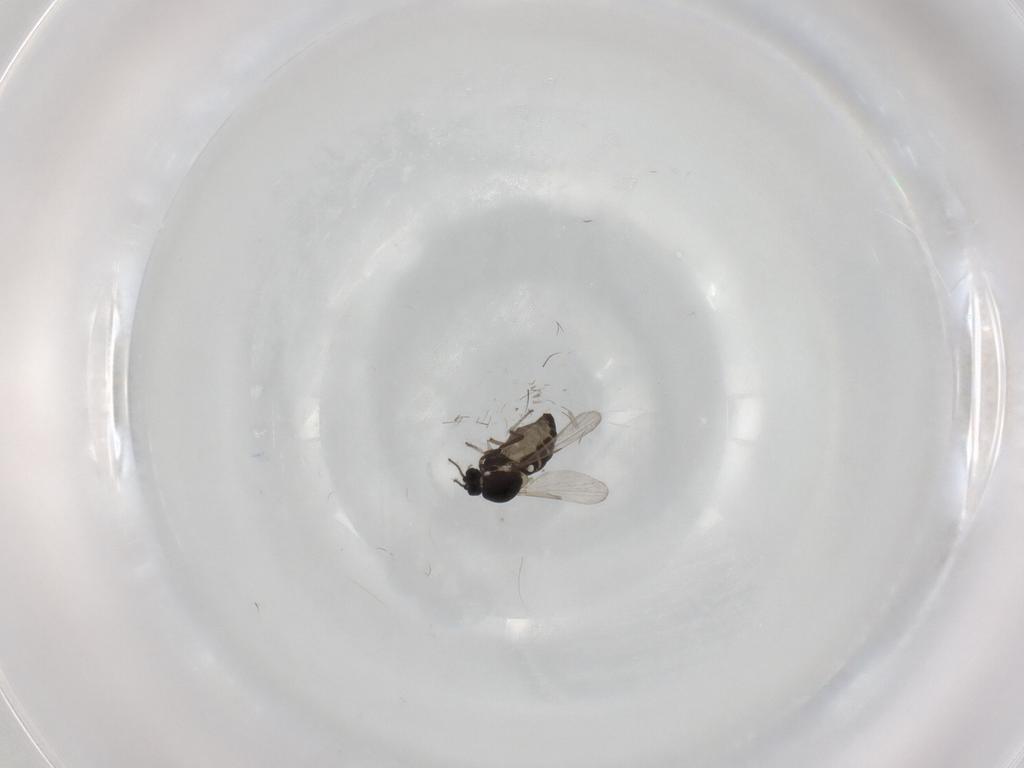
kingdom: Animalia
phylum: Arthropoda
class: Insecta
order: Diptera
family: Ceratopogonidae
